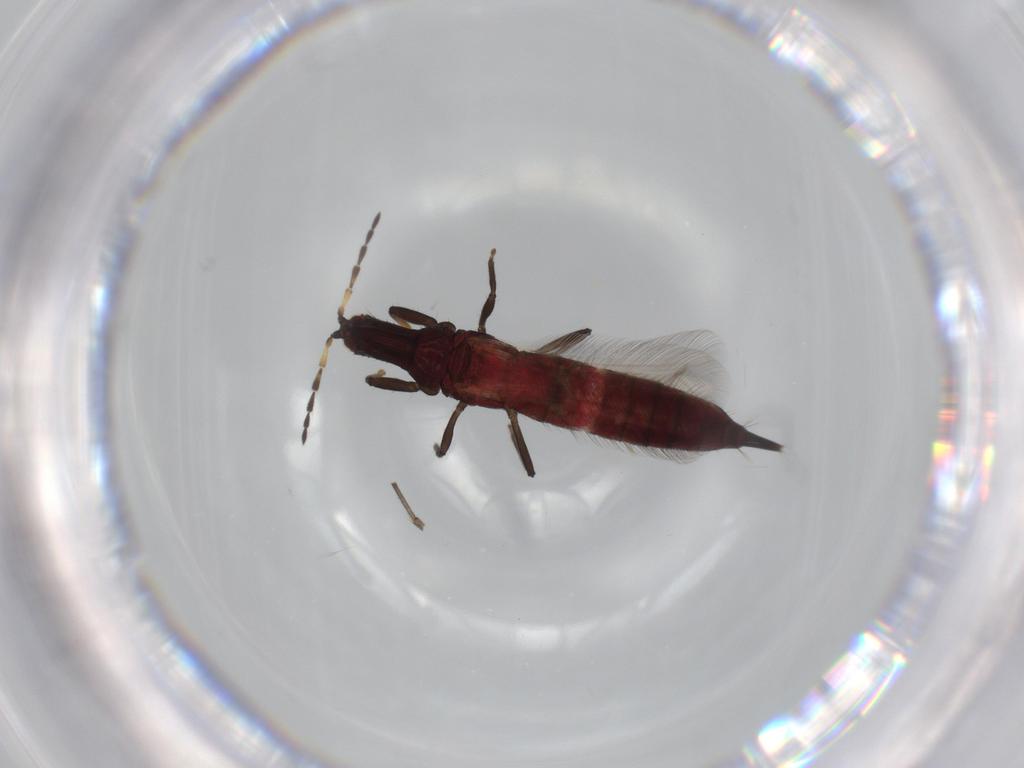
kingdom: Animalia
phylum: Arthropoda
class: Insecta
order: Thysanoptera
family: Phlaeothripidae
